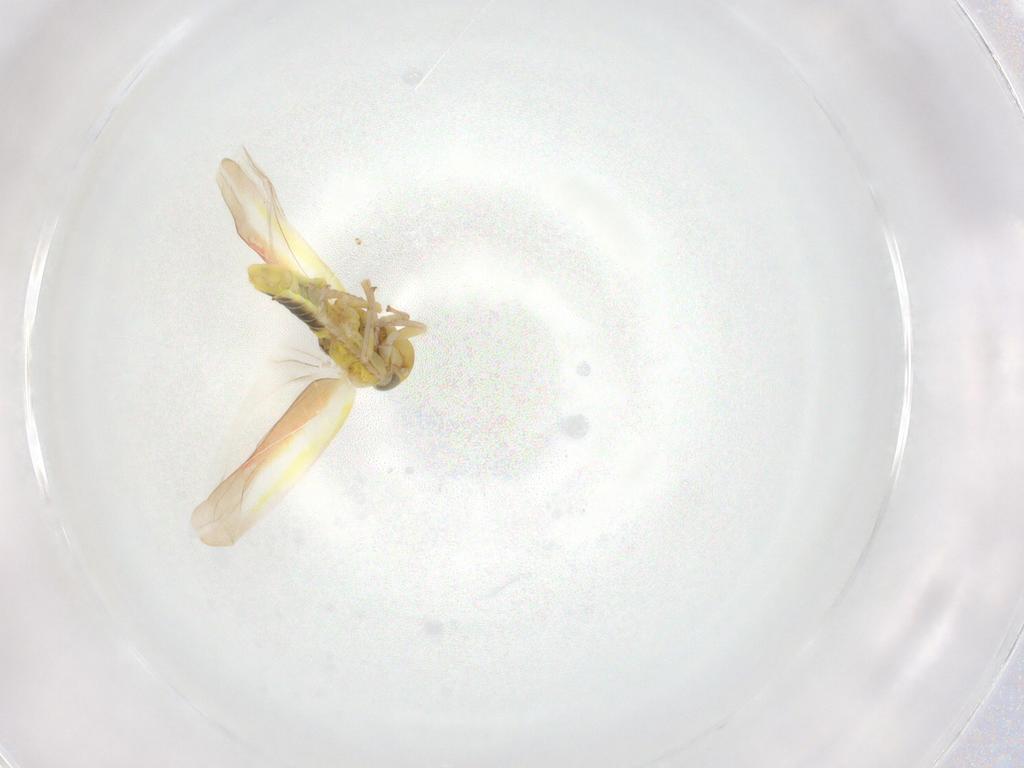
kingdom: Animalia
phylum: Arthropoda
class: Insecta
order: Hemiptera
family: Cicadellidae
